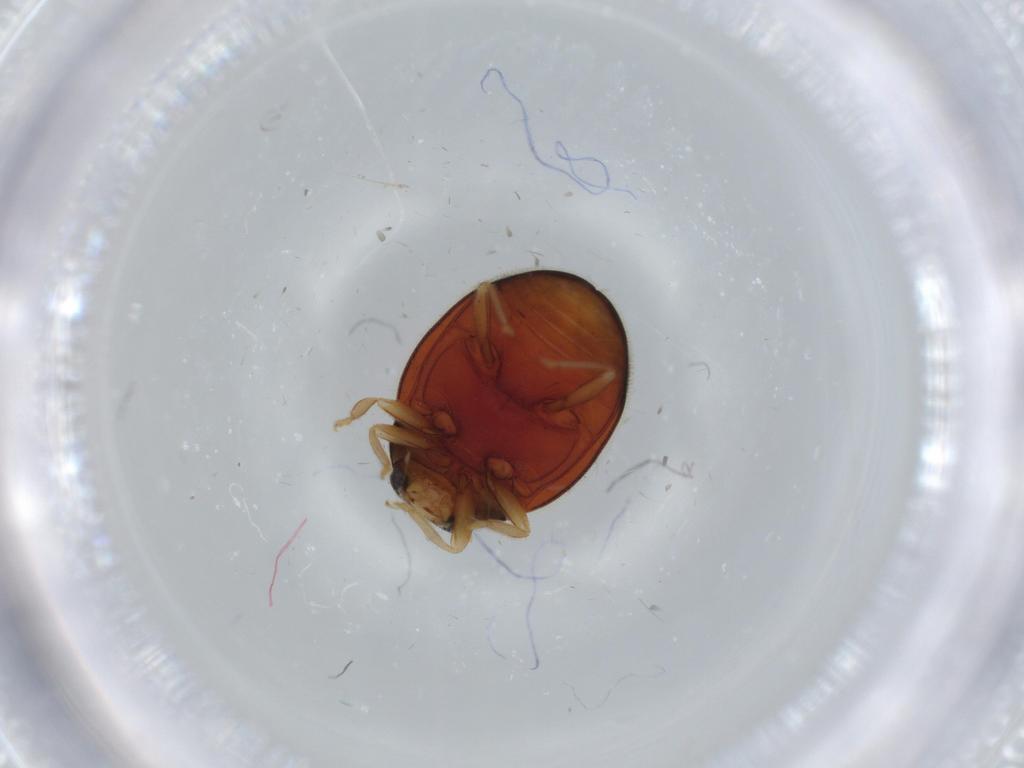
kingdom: Animalia
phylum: Arthropoda
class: Insecta
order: Coleoptera
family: Coccinellidae
